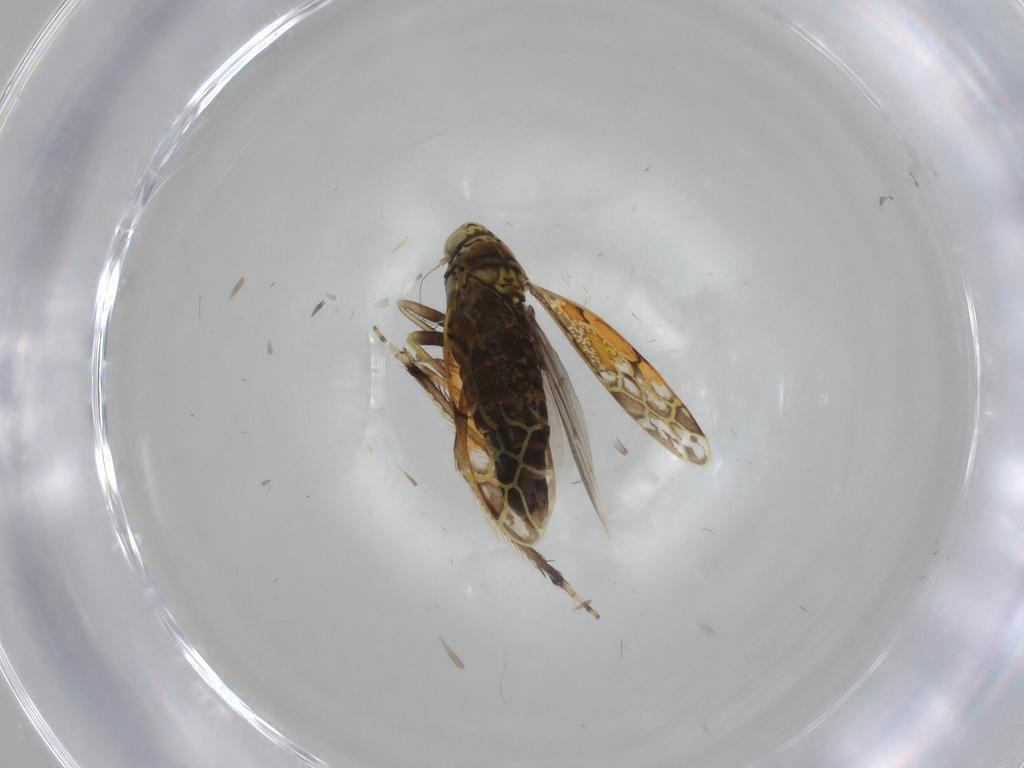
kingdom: Animalia
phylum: Arthropoda
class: Insecta
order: Hemiptera
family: Cicadellidae
